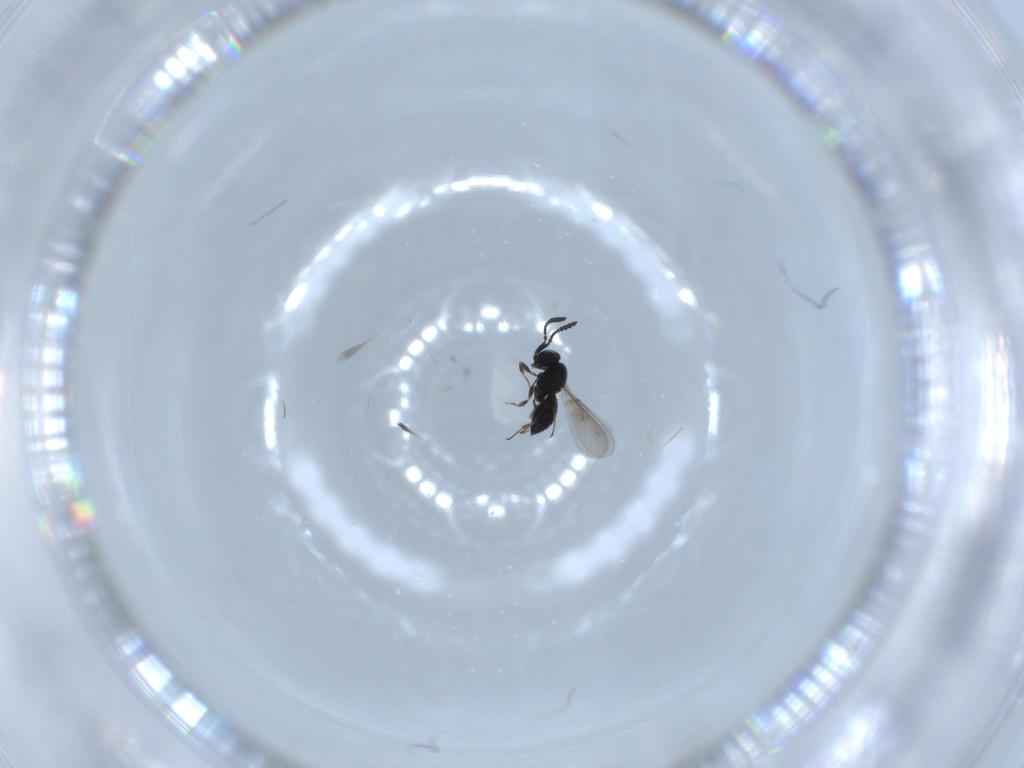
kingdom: Animalia
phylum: Arthropoda
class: Insecta
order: Hymenoptera
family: Scelionidae
